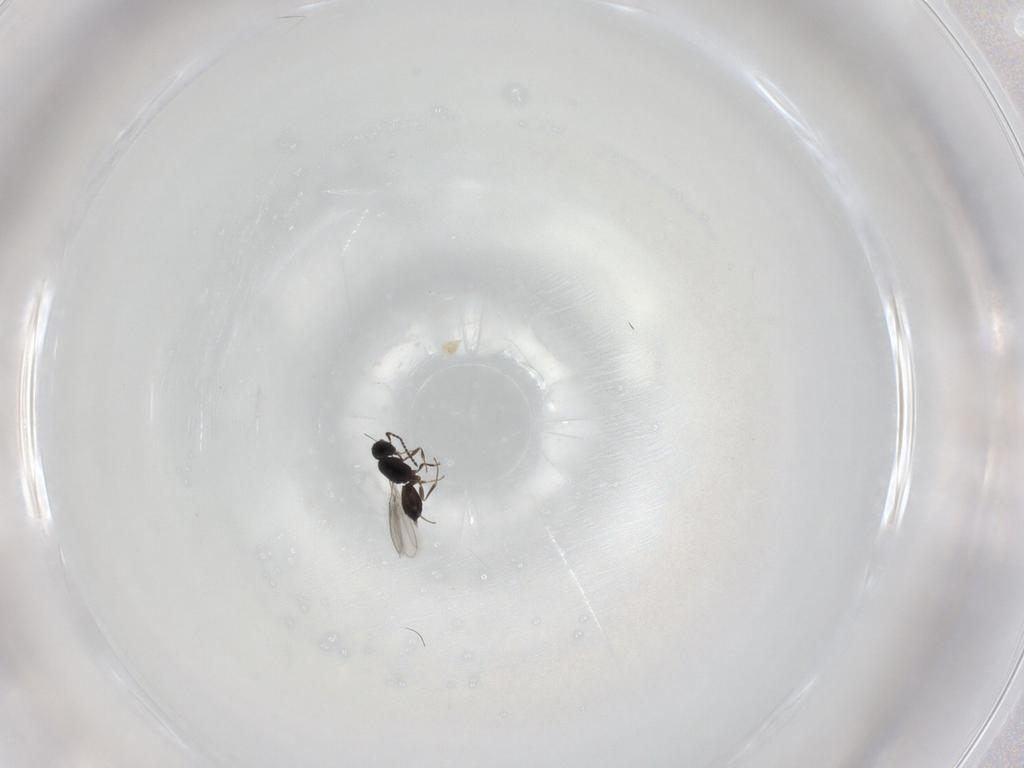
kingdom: Animalia
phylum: Arthropoda
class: Insecta
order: Hymenoptera
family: Scelionidae
